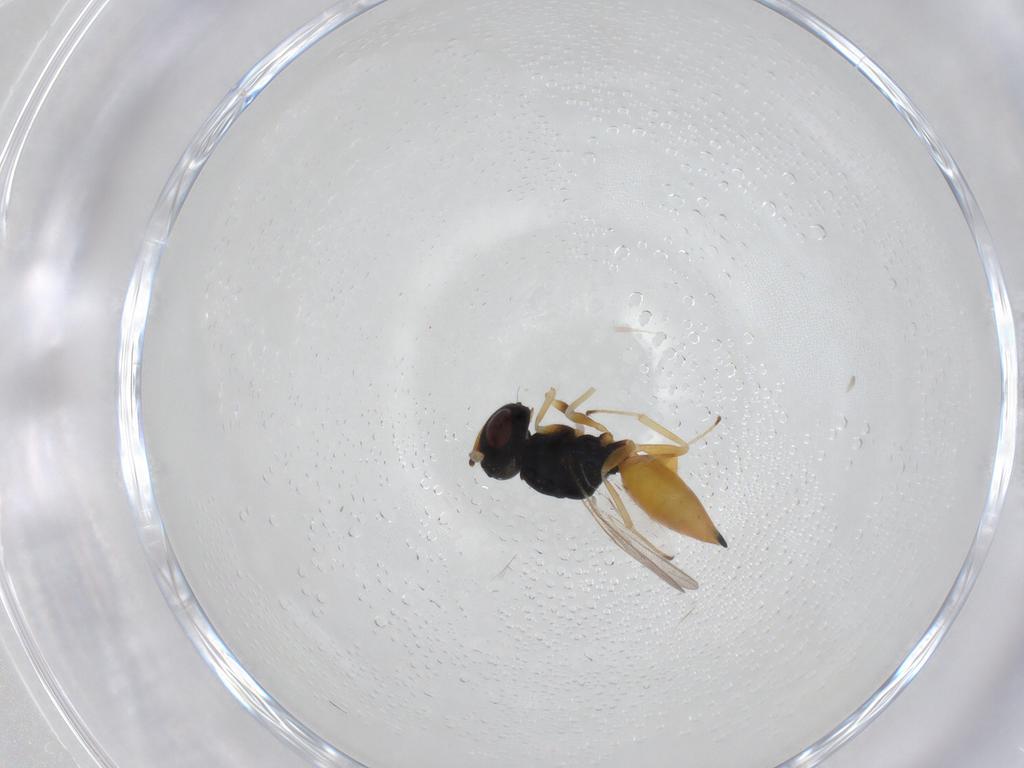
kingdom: Animalia
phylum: Arthropoda
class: Insecta
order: Hymenoptera
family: Pteromalidae
